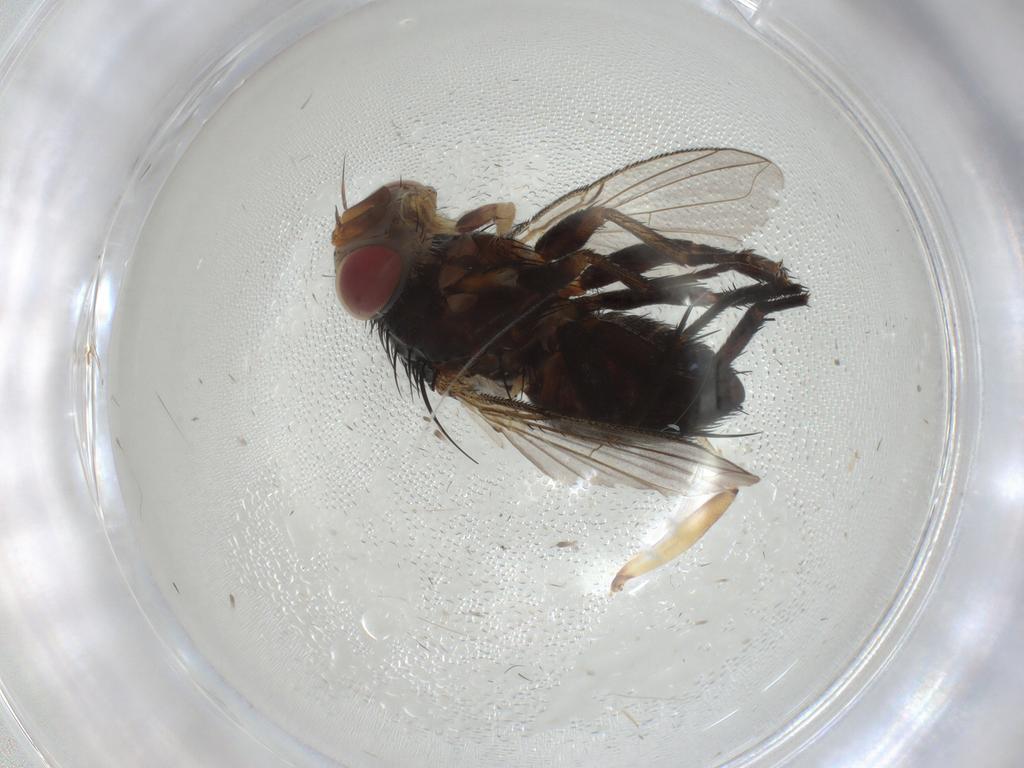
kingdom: Animalia
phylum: Arthropoda
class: Insecta
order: Diptera
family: Mycetophilidae
